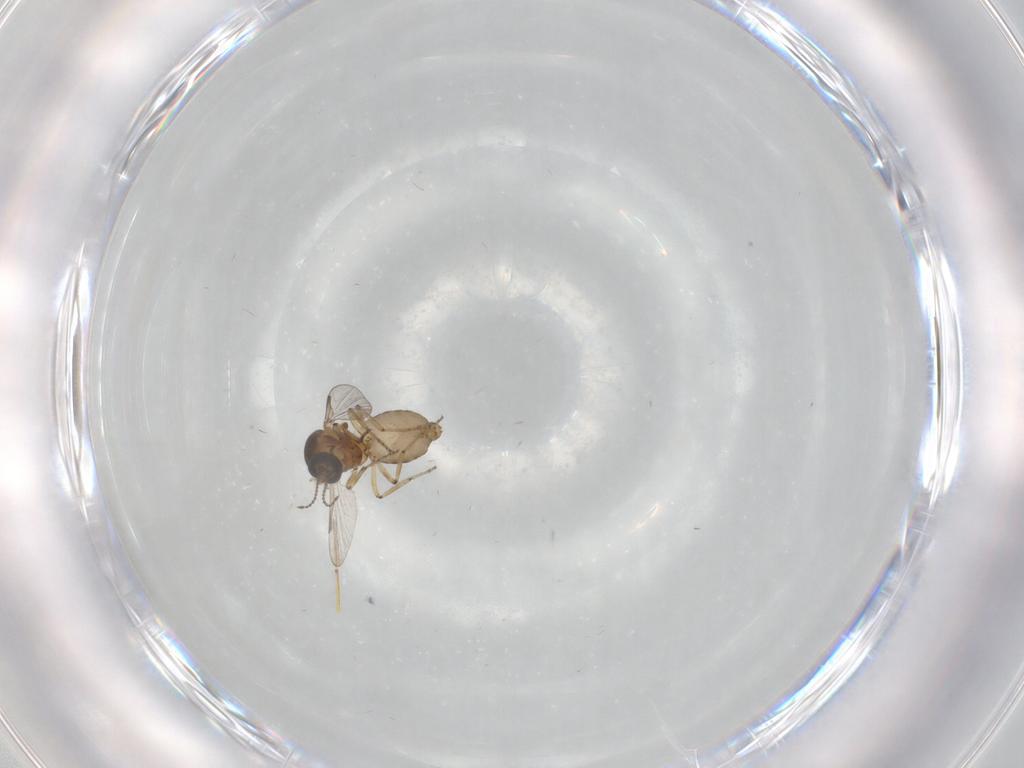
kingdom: Animalia
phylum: Arthropoda
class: Insecta
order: Diptera
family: Ceratopogonidae
